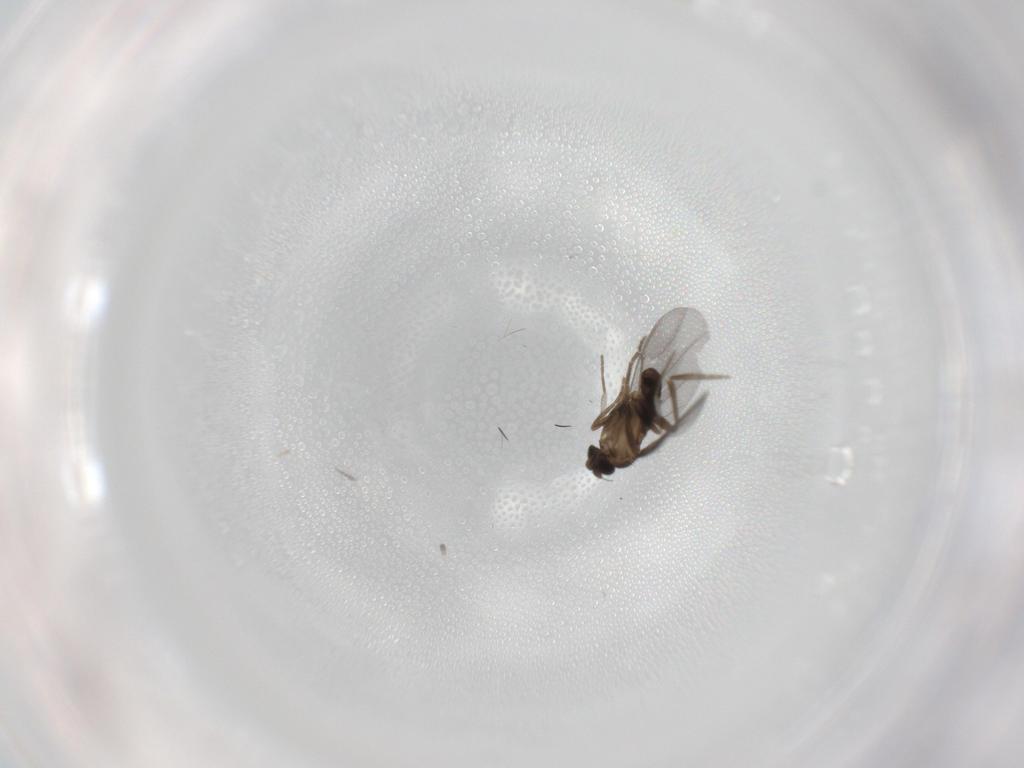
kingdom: Animalia
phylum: Arthropoda
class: Insecta
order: Diptera
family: Cecidomyiidae
